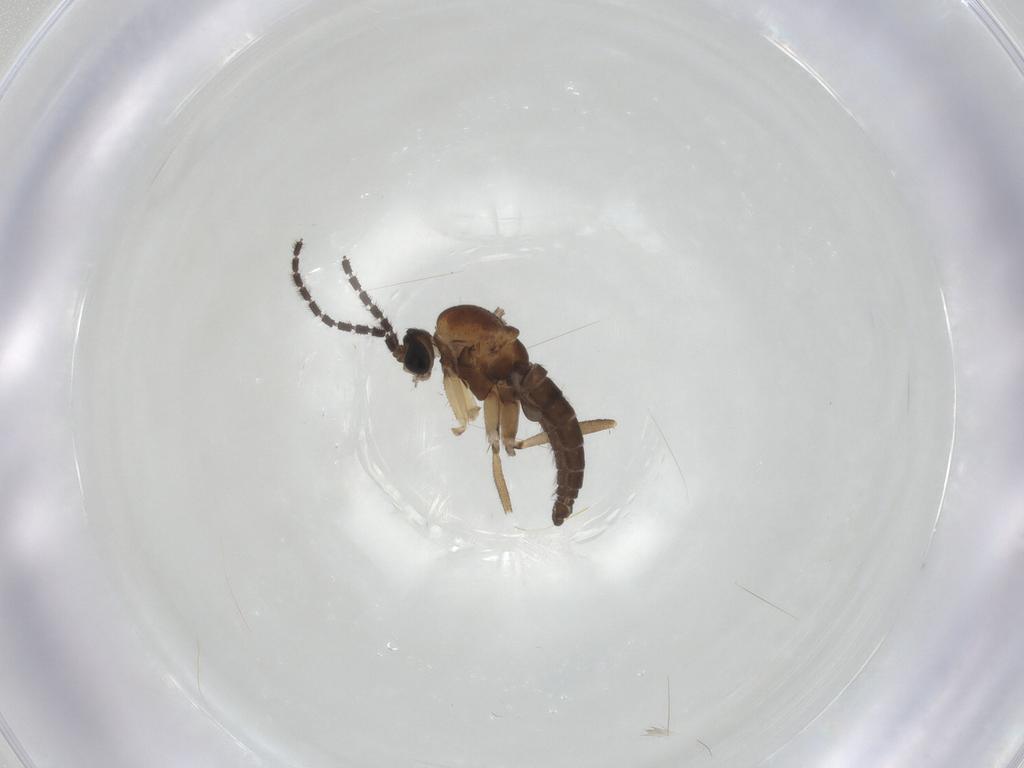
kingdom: Animalia
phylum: Arthropoda
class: Insecta
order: Diptera
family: Sciaridae
